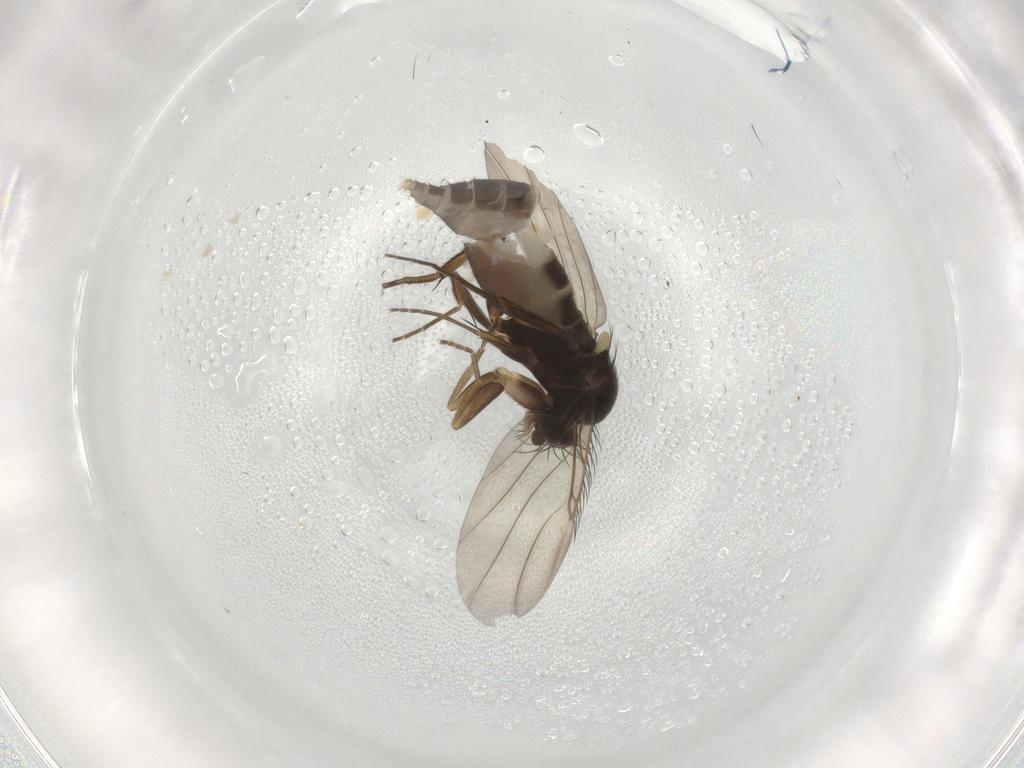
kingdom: Animalia
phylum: Arthropoda
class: Insecta
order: Diptera
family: Phoridae
